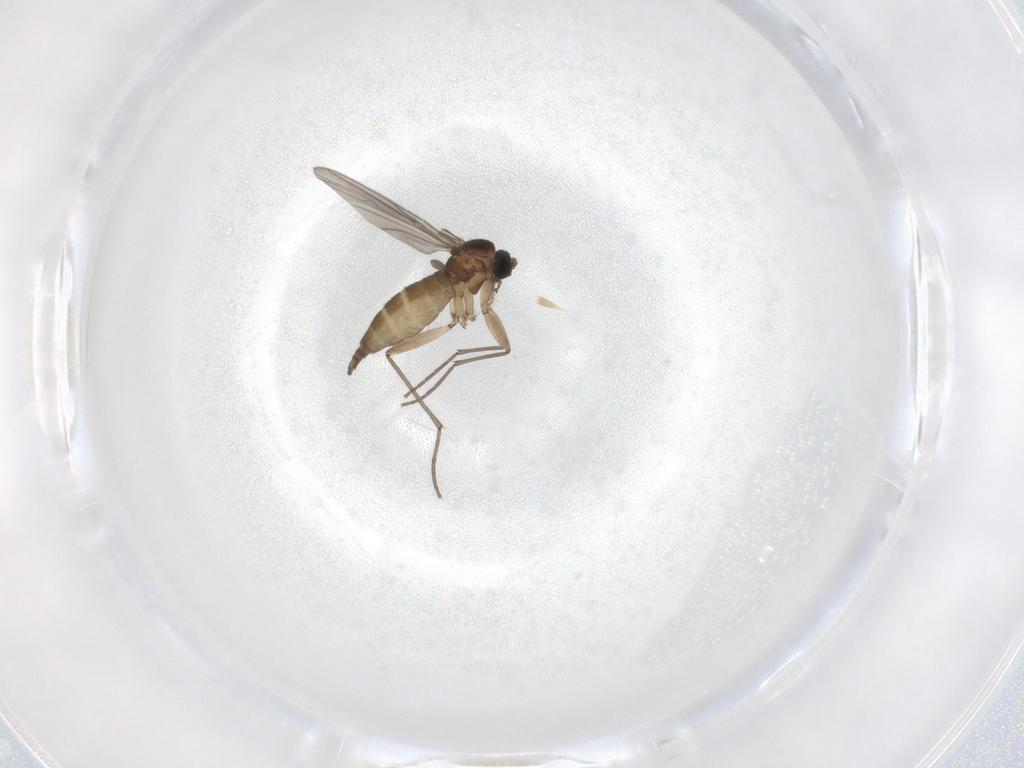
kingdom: Animalia
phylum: Arthropoda
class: Insecta
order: Diptera
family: Sciaridae
